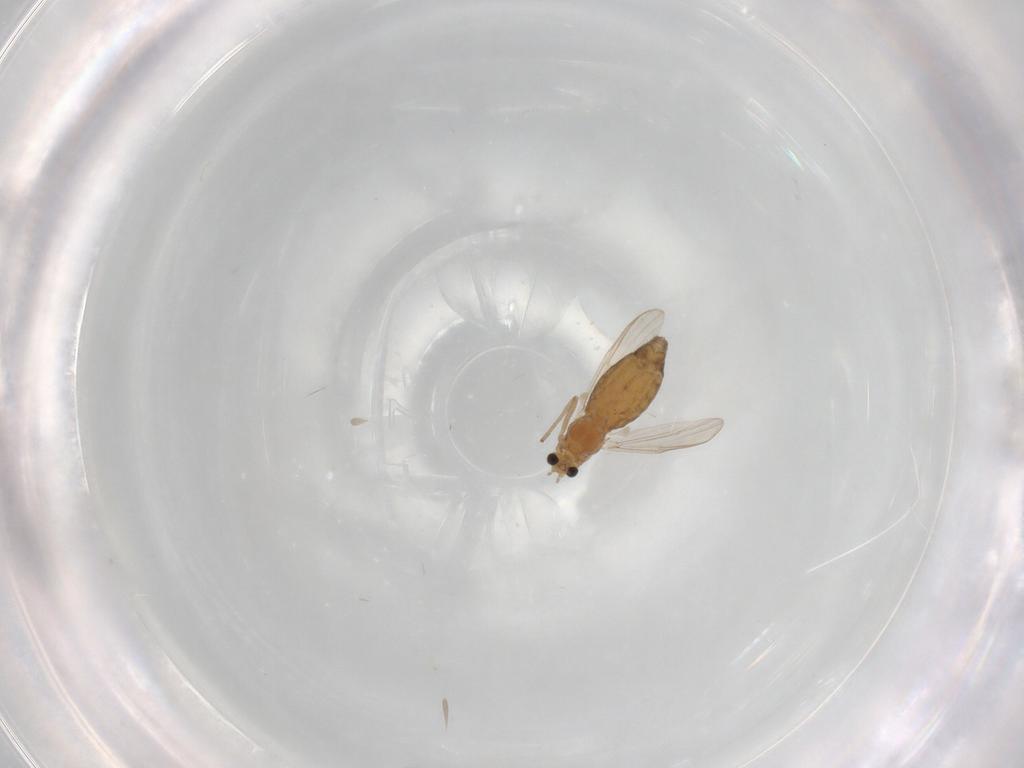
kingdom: Animalia
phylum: Arthropoda
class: Insecta
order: Diptera
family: Chironomidae
